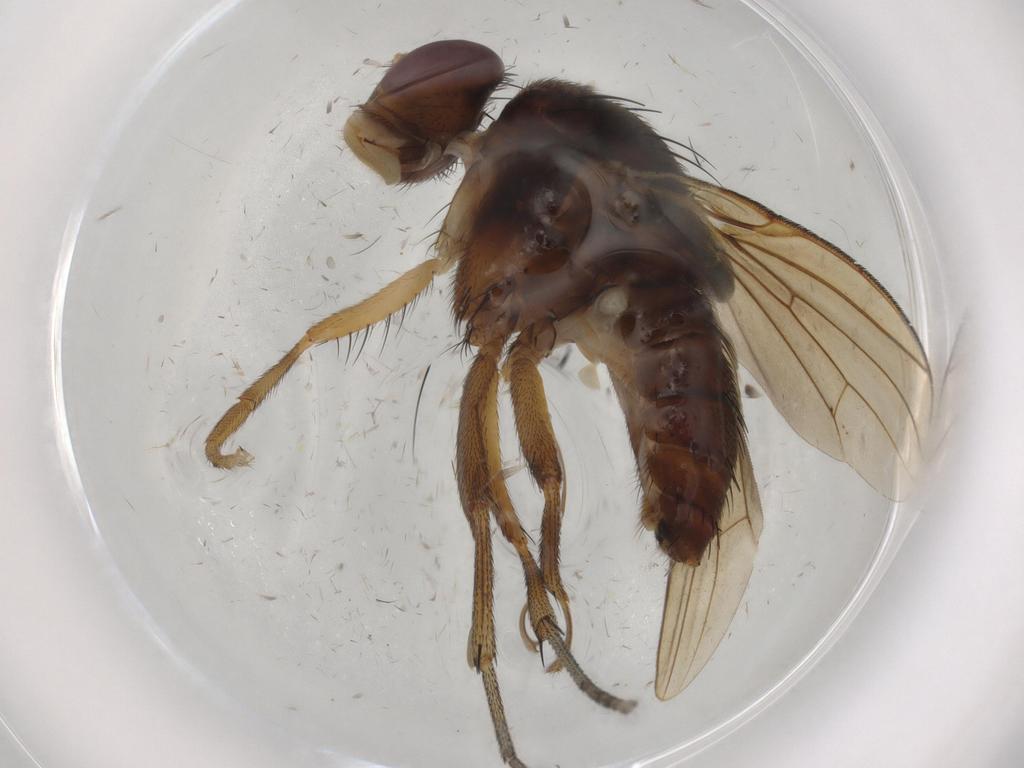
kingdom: Animalia
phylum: Arthropoda
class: Insecta
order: Diptera
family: Chironomidae
